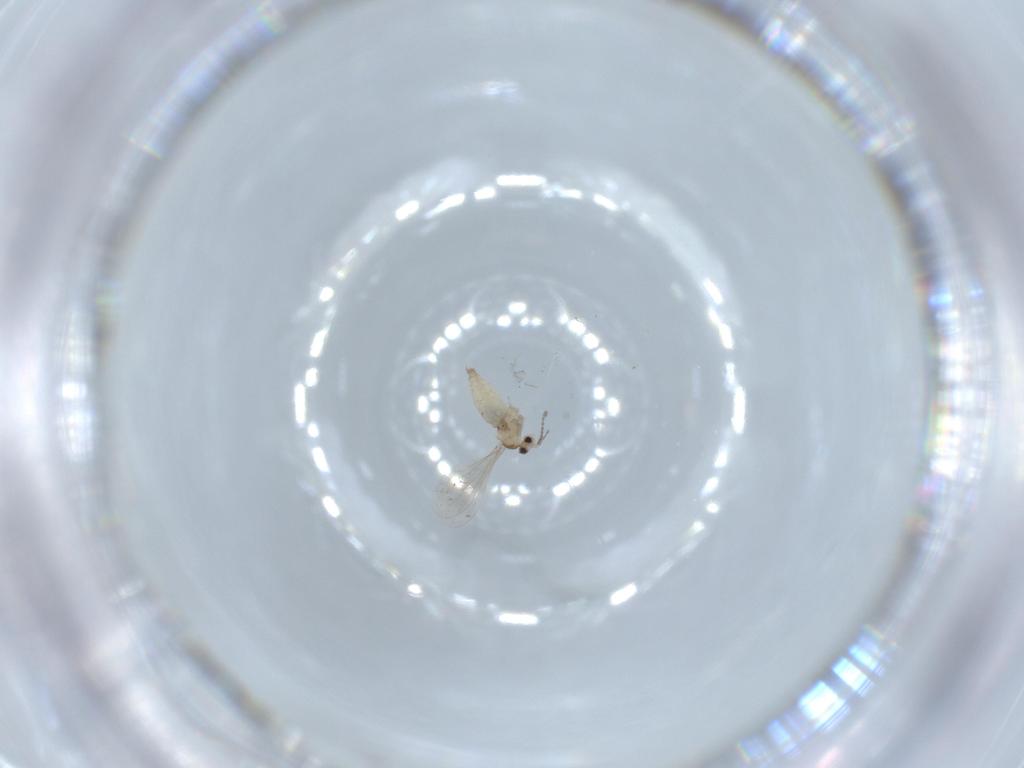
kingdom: Animalia
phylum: Arthropoda
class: Insecta
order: Diptera
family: Cecidomyiidae
